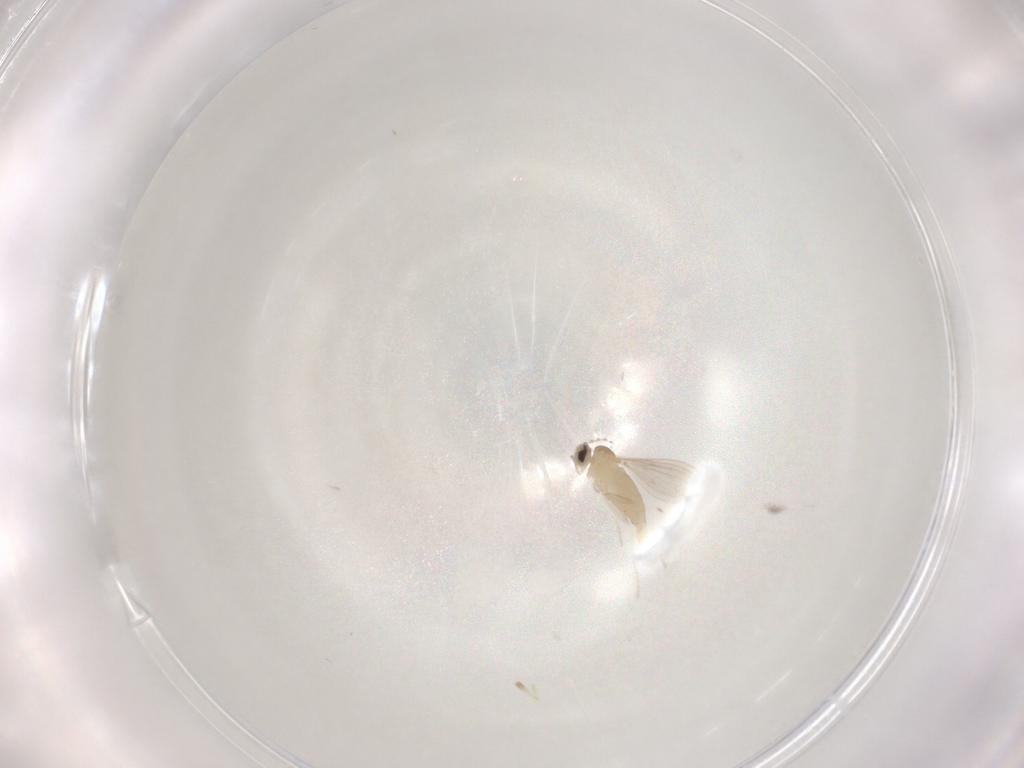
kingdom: Animalia
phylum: Arthropoda
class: Insecta
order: Diptera
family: Cecidomyiidae
